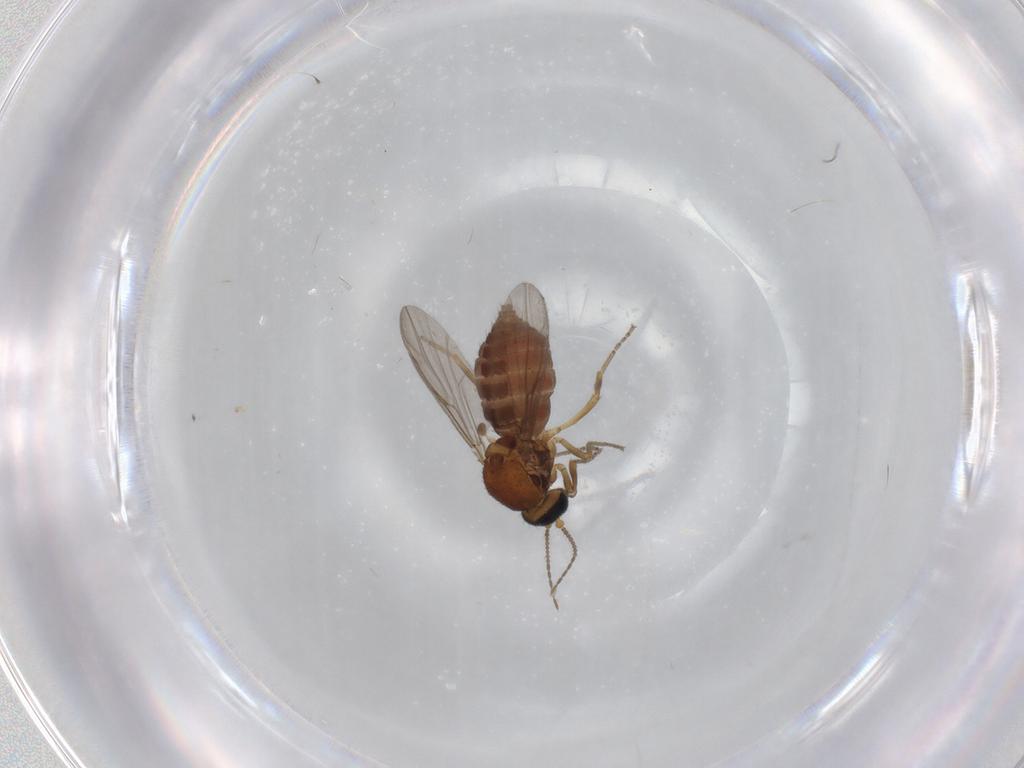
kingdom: Animalia
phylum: Arthropoda
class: Insecta
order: Diptera
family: Ceratopogonidae
